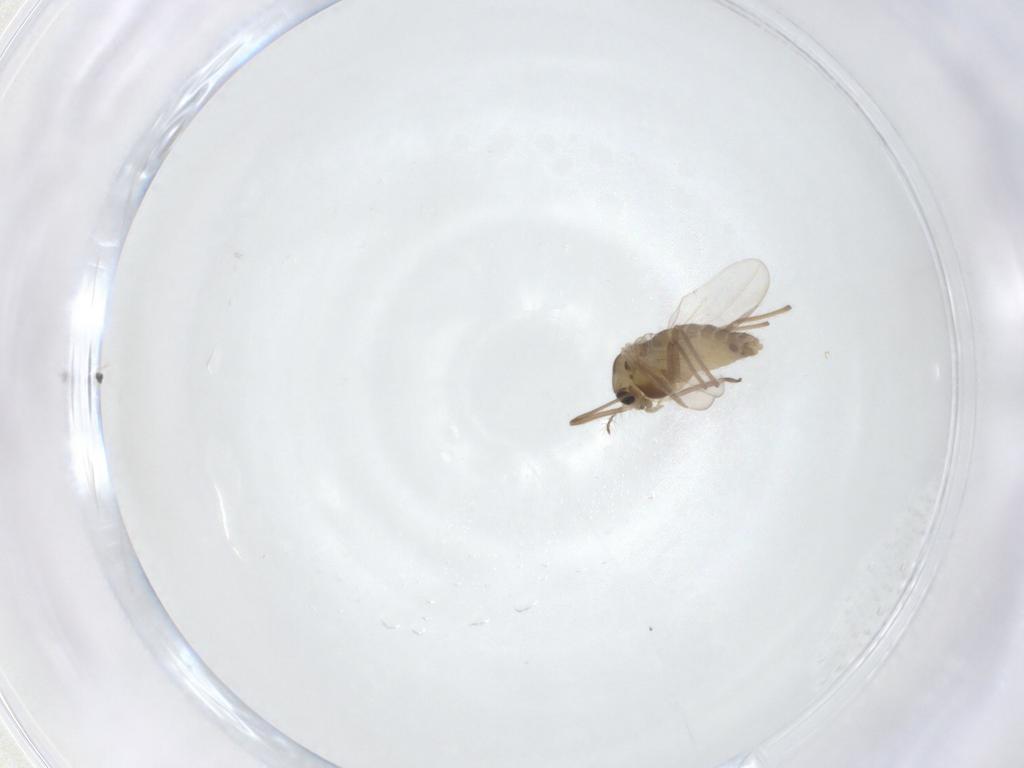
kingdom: Animalia
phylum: Arthropoda
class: Insecta
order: Diptera
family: Chironomidae
